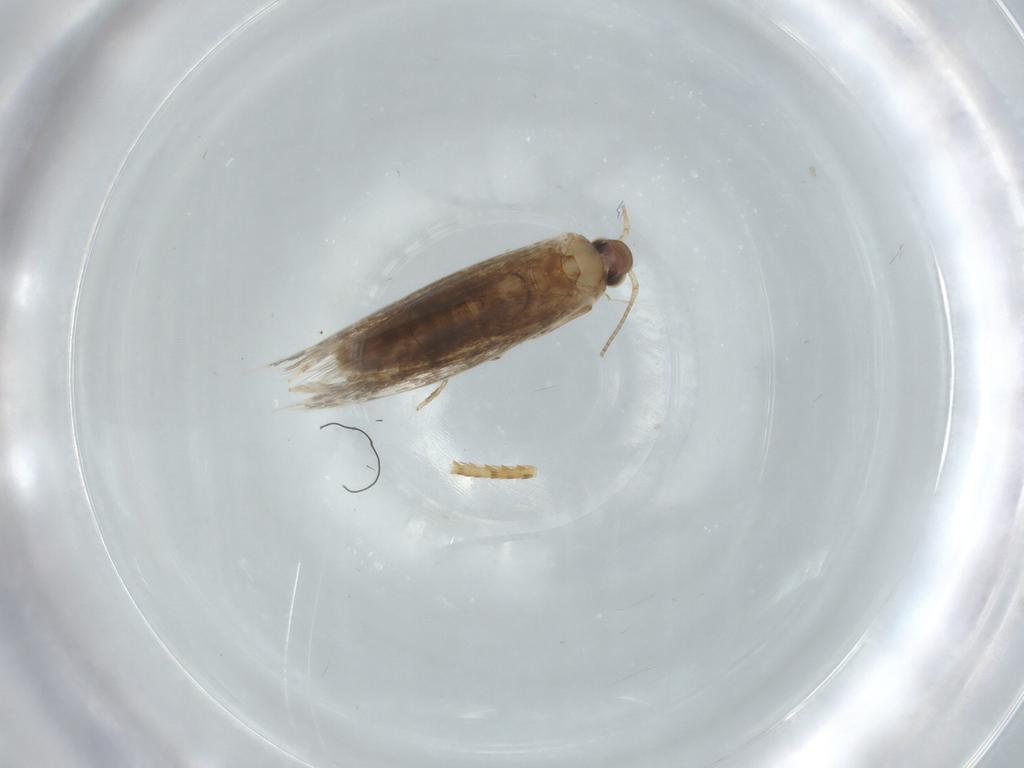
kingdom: Animalia
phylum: Arthropoda
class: Insecta
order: Lepidoptera
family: Gracillariidae
